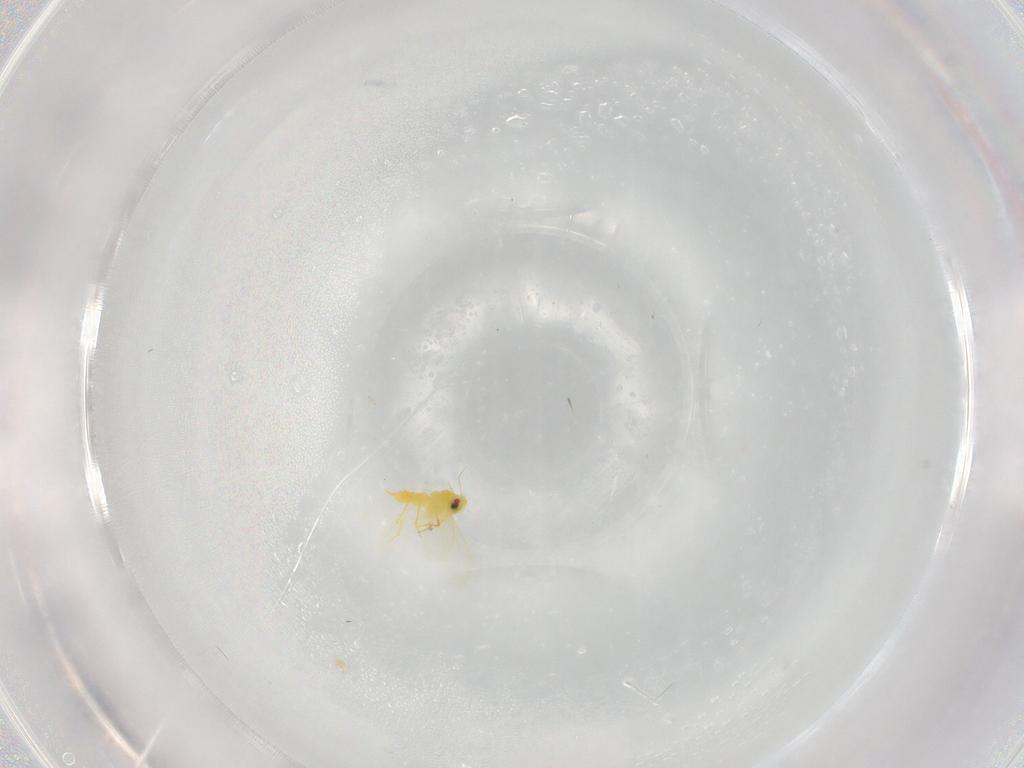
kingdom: Animalia
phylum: Arthropoda
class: Insecta
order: Hemiptera
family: Aleyrodidae
